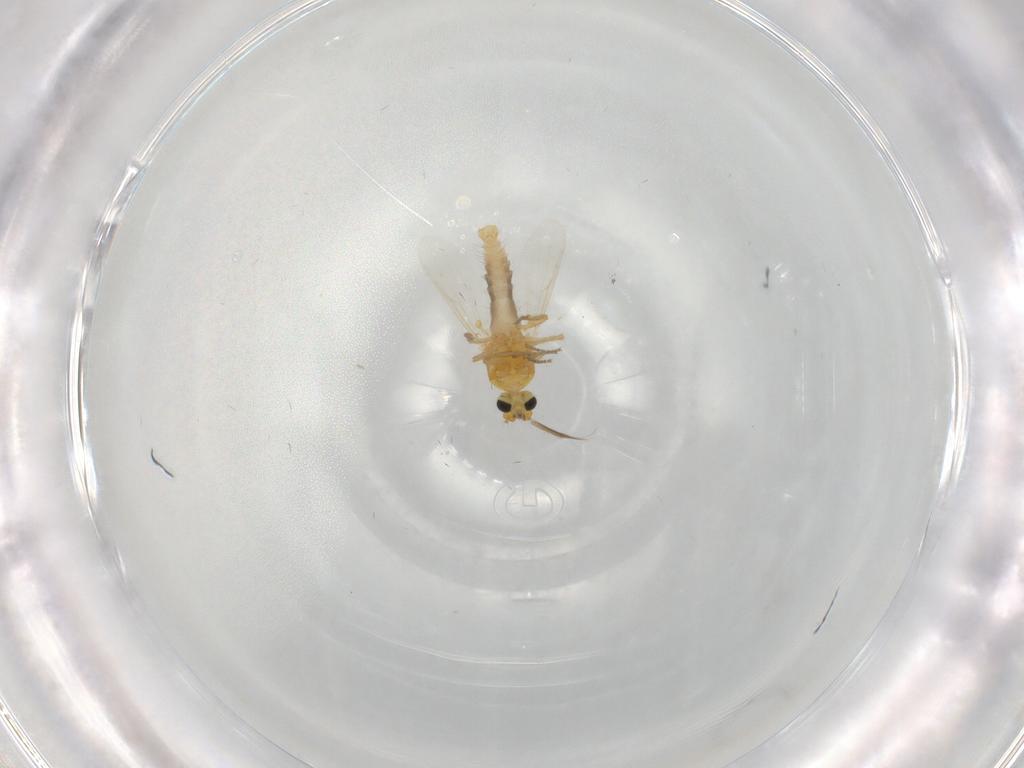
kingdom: Animalia
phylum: Arthropoda
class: Insecta
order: Diptera
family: Ceratopogonidae
